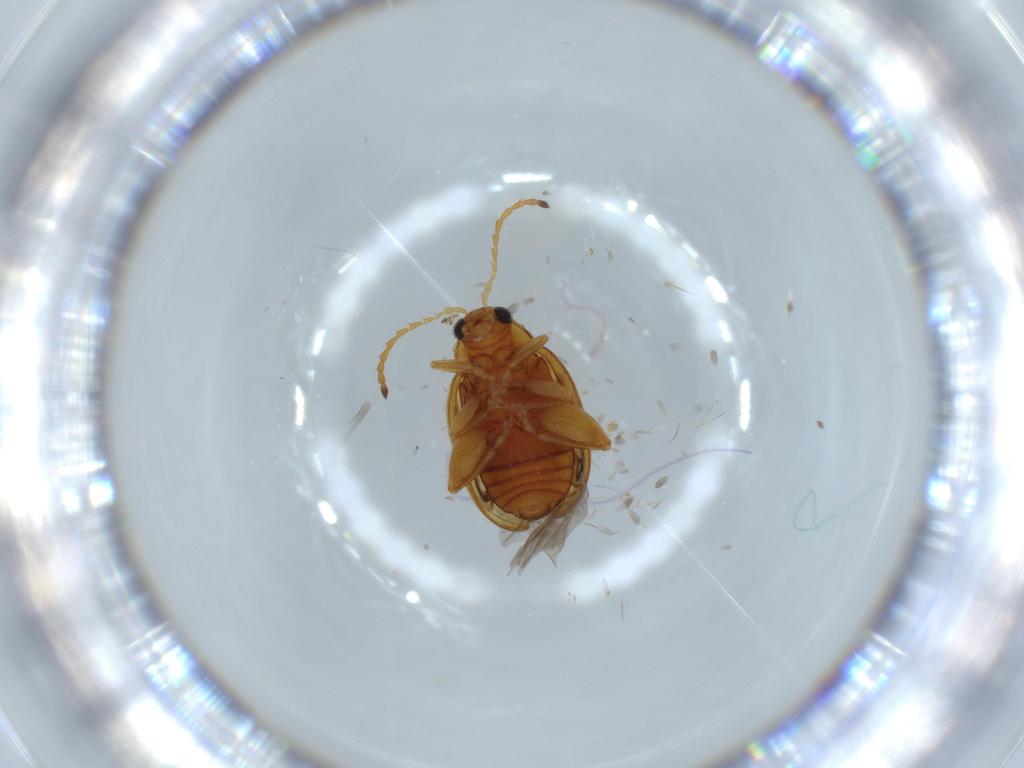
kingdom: Animalia
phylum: Arthropoda
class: Insecta
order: Coleoptera
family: Chrysomelidae
